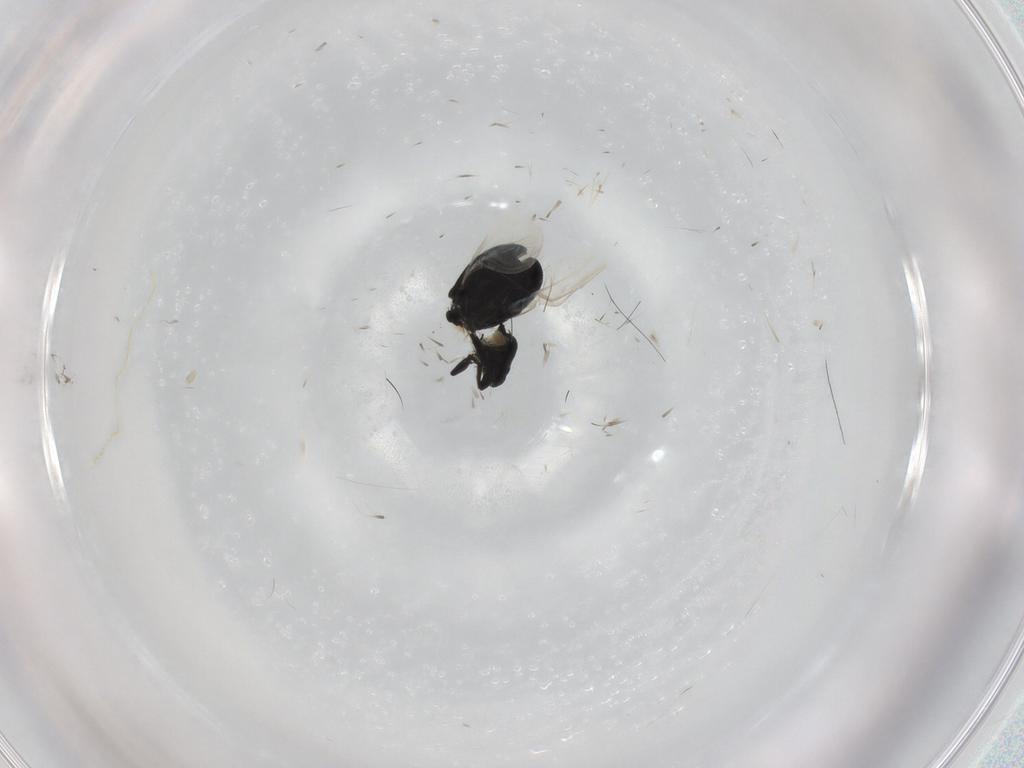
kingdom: Animalia
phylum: Arthropoda
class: Insecta
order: Coleoptera
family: Curculionidae
